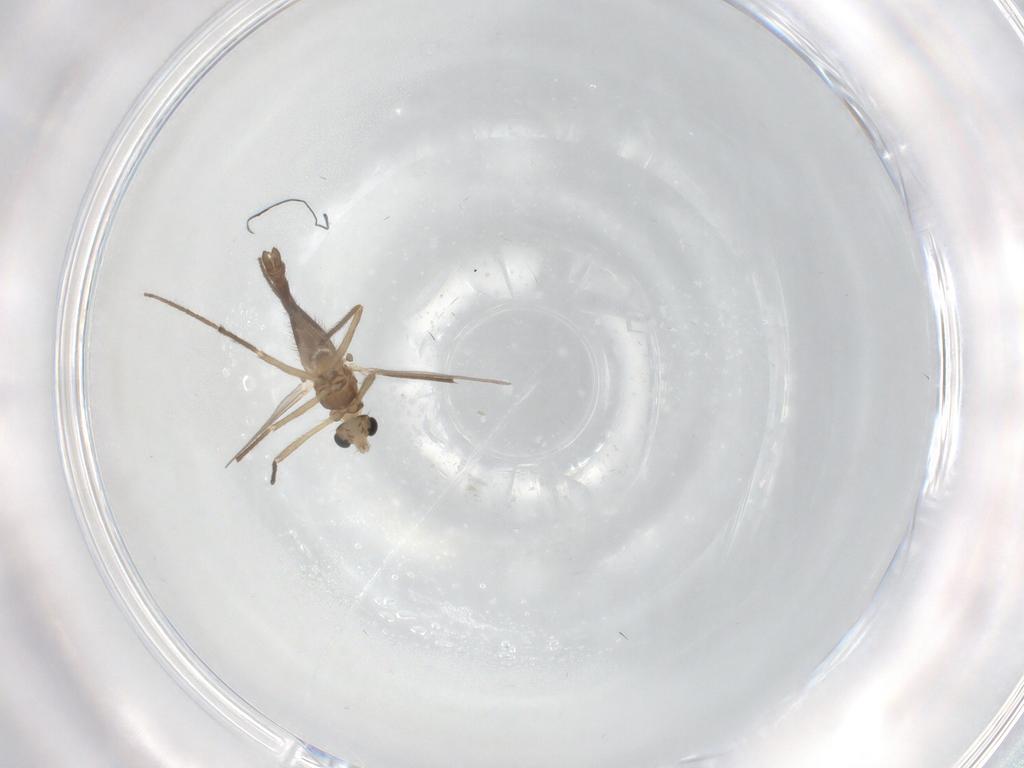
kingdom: Animalia
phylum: Arthropoda
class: Insecta
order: Diptera
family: Chironomidae
